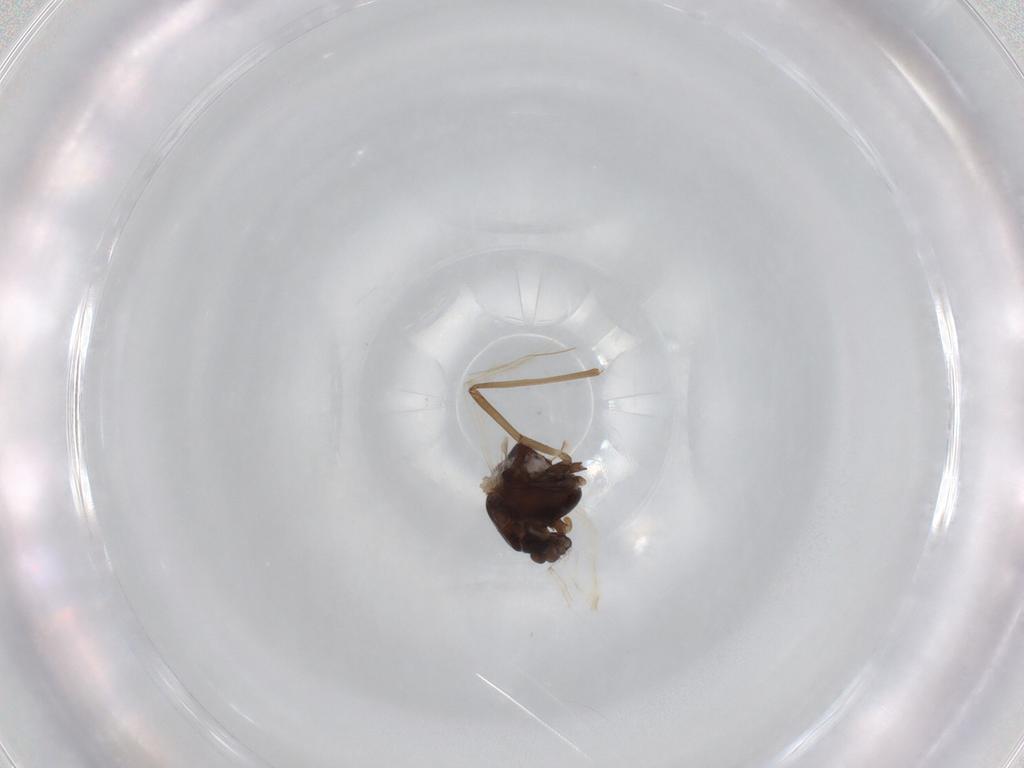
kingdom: Animalia
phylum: Arthropoda
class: Insecta
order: Diptera
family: Chironomidae
